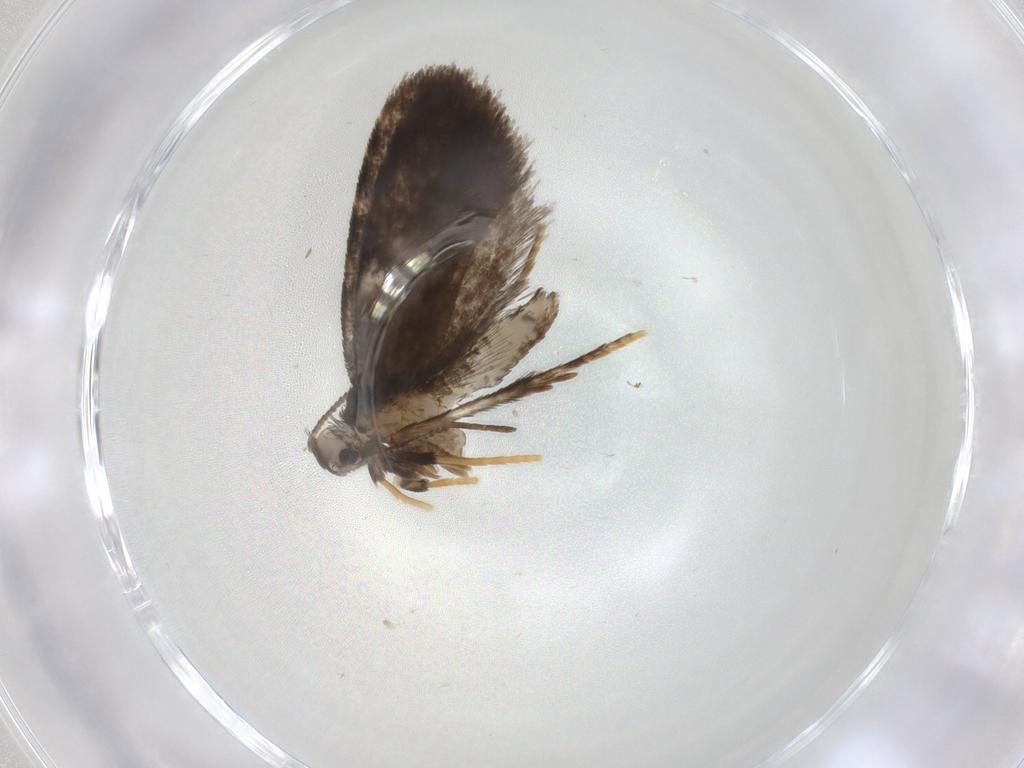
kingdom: Animalia
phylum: Arthropoda
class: Insecta
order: Lepidoptera
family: Psychidae
